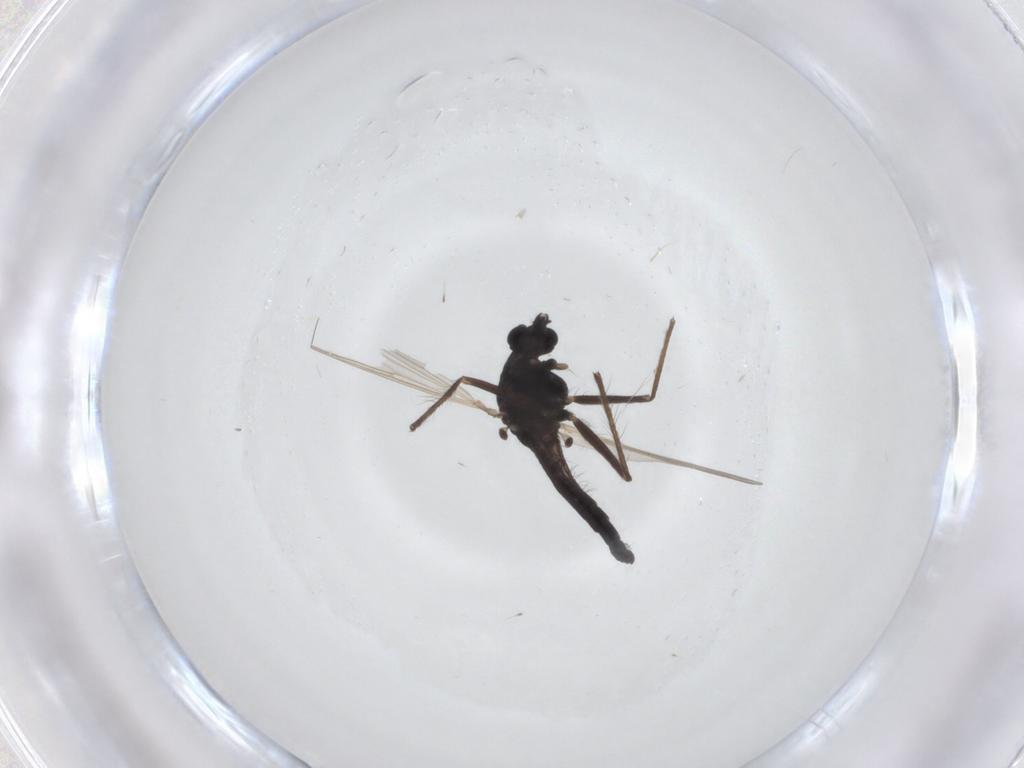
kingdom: Animalia
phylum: Arthropoda
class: Insecta
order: Diptera
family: Chironomidae
